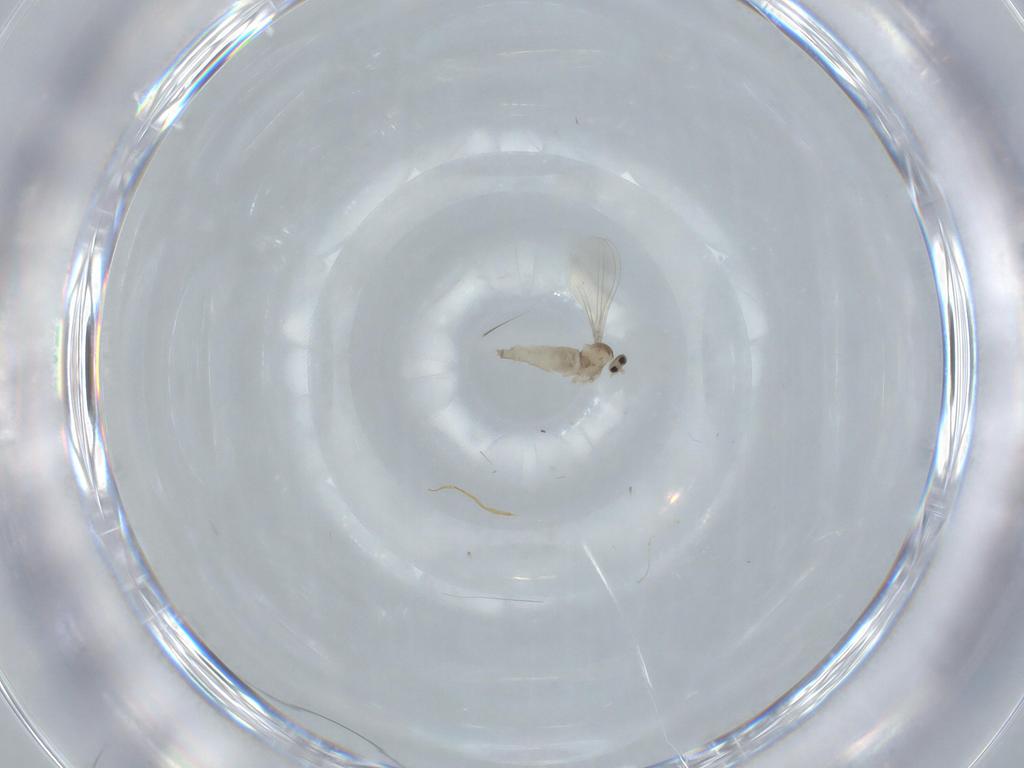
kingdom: Animalia
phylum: Arthropoda
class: Insecta
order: Diptera
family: Cecidomyiidae
